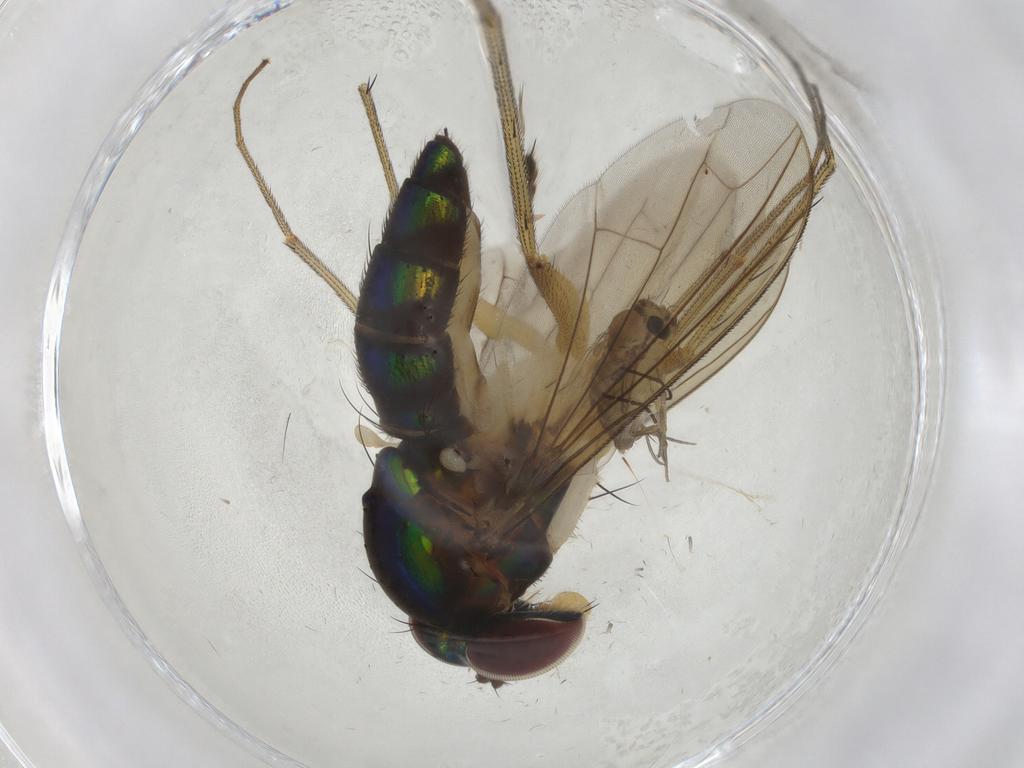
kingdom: Animalia
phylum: Arthropoda
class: Insecta
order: Diptera
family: Dolichopodidae
